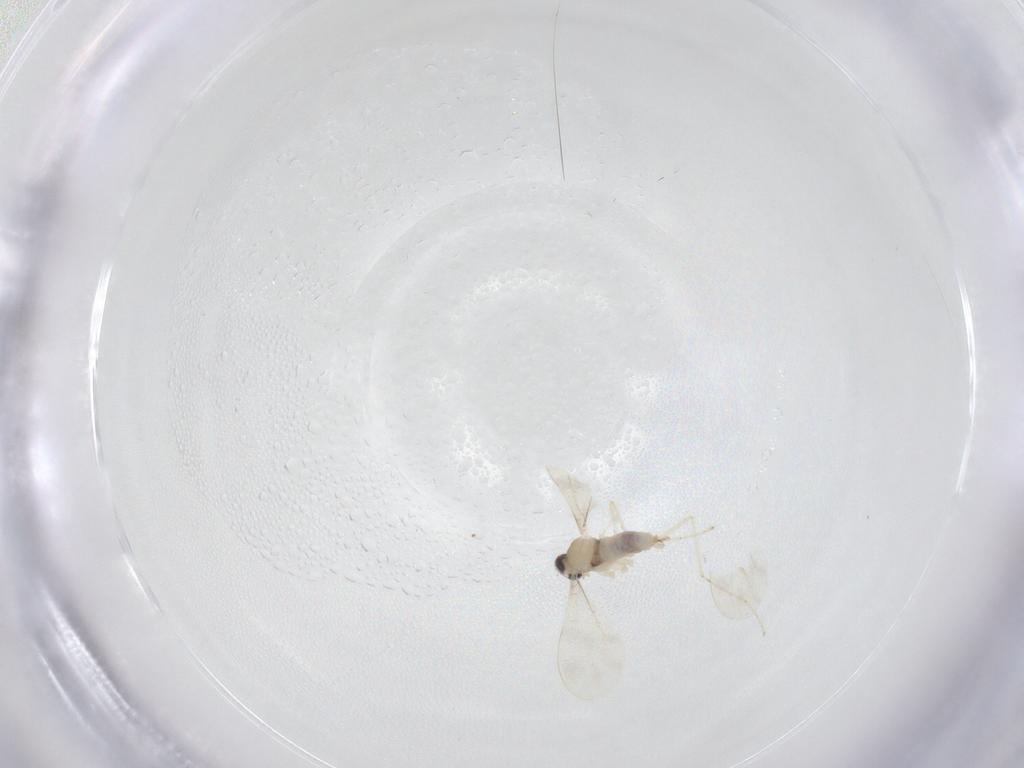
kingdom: Animalia
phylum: Arthropoda
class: Insecta
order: Diptera
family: Cecidomyiidae
